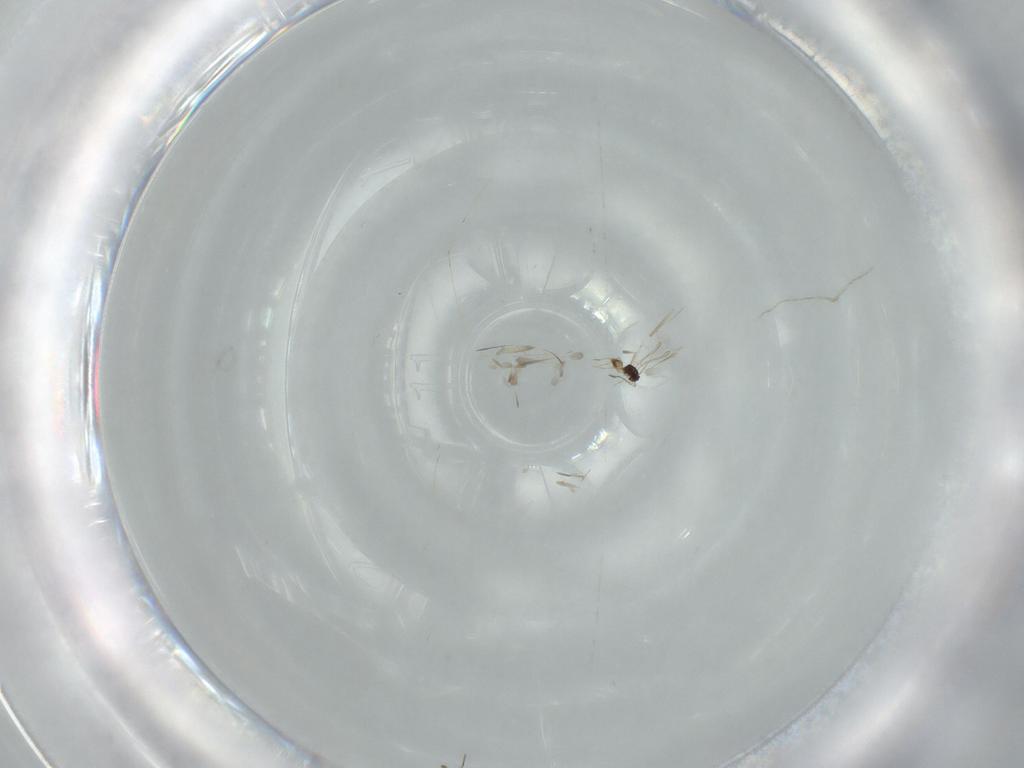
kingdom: Animalia
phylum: Arthropoda
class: Insecta
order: Hymenoptera
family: Mymaridae
